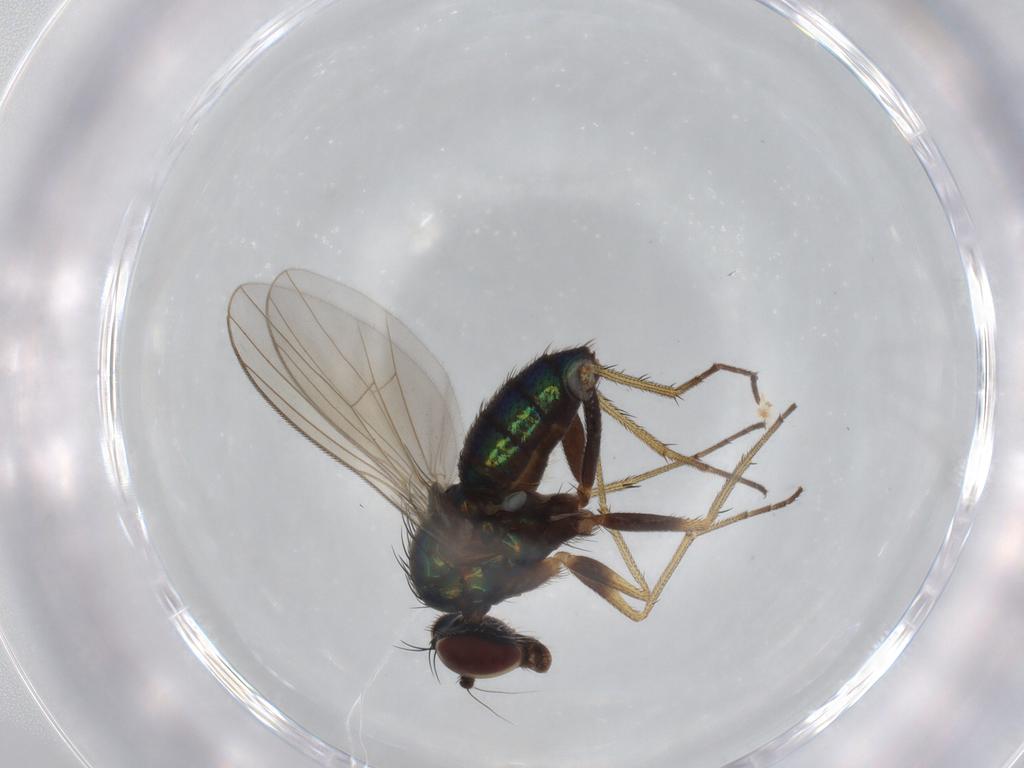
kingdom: Animalia
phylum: Arthropoda
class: Insecta
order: Diptera
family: Dolichopodidae
